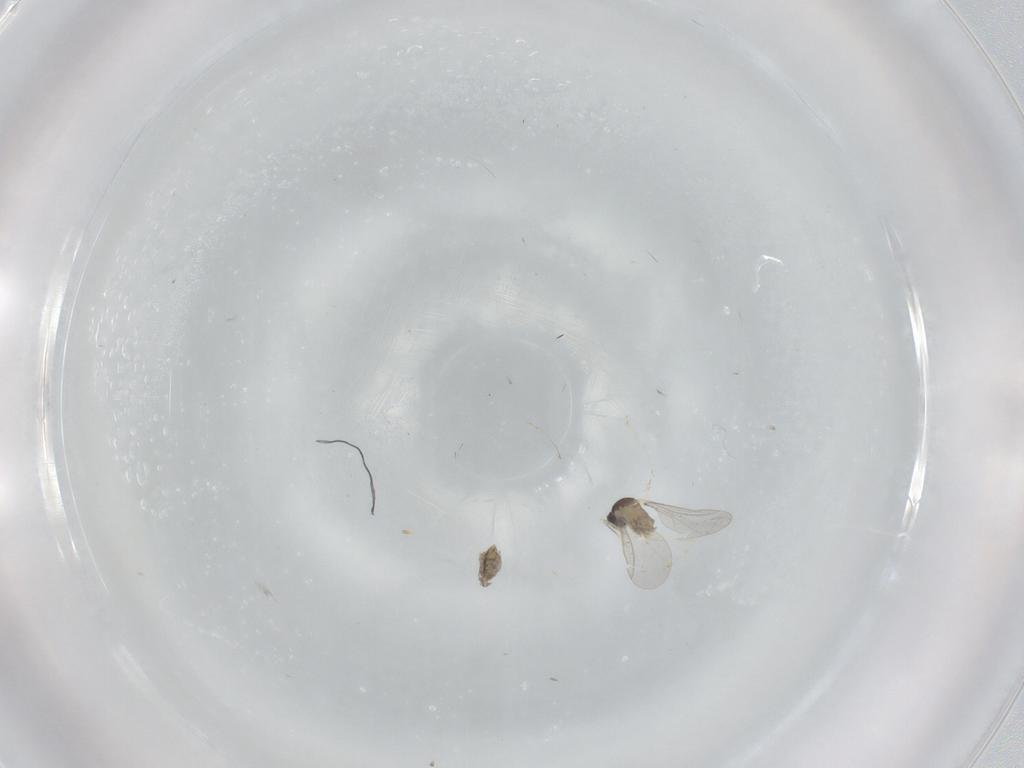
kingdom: Animalia
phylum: Arthropoda
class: Insecta
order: Diptera
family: Cecidomyiidae
